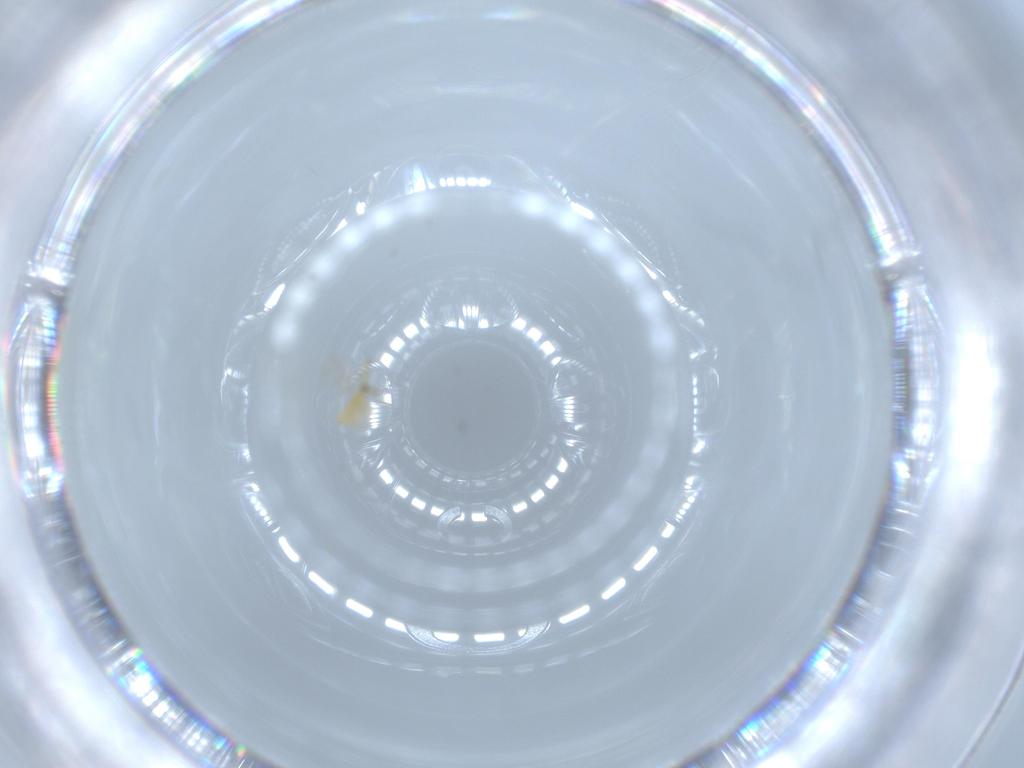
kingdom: Animalia
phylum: Arthropoda
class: Insecta
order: Hymenoptera
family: Aphelinidae
